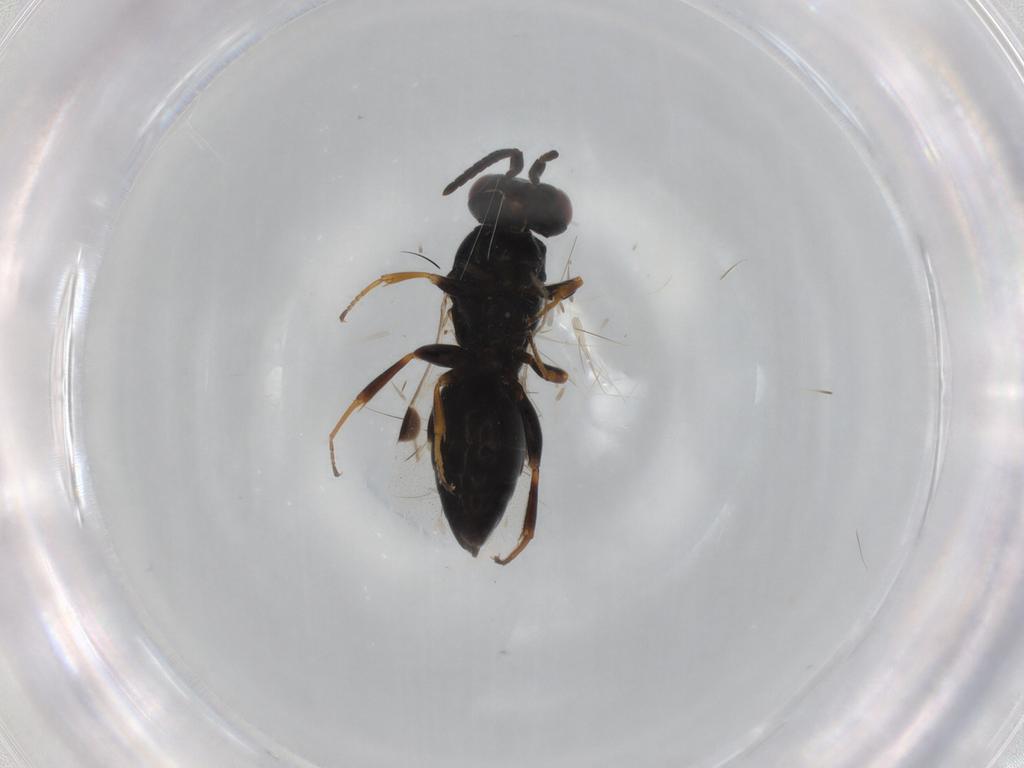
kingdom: Animalia
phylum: Arthropoda
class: Insecta
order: Hymenoptera
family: Megaspilidae
